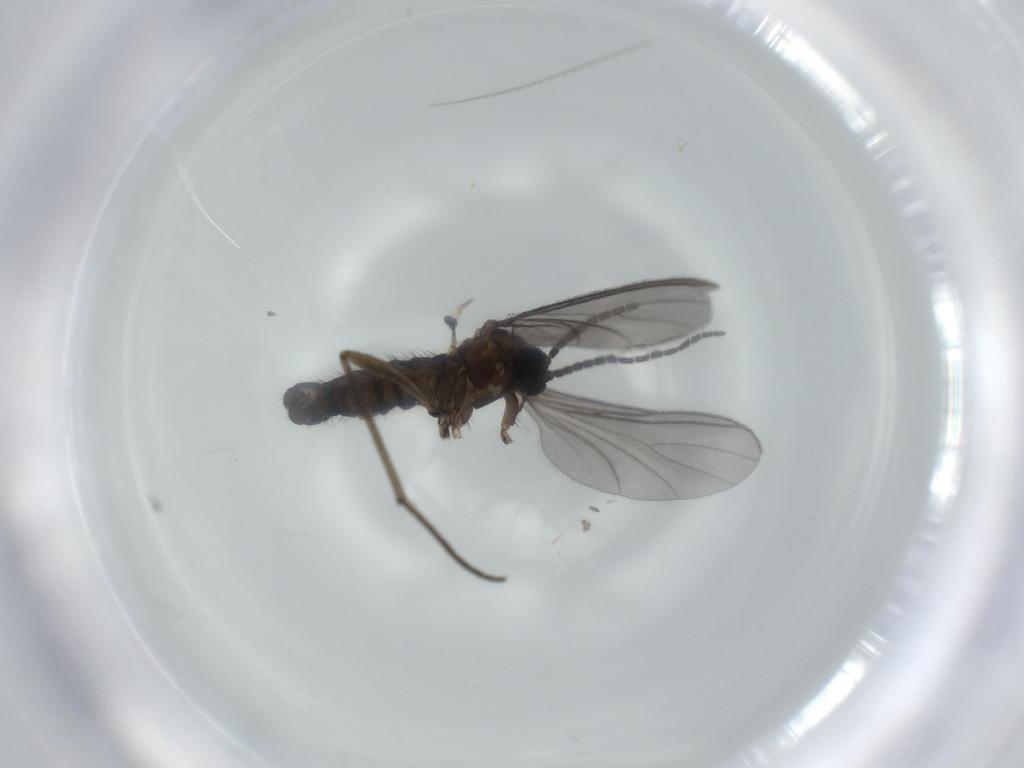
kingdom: Animalia
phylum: Arthropoda
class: Insecta
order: Diptera
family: Sciaridae
